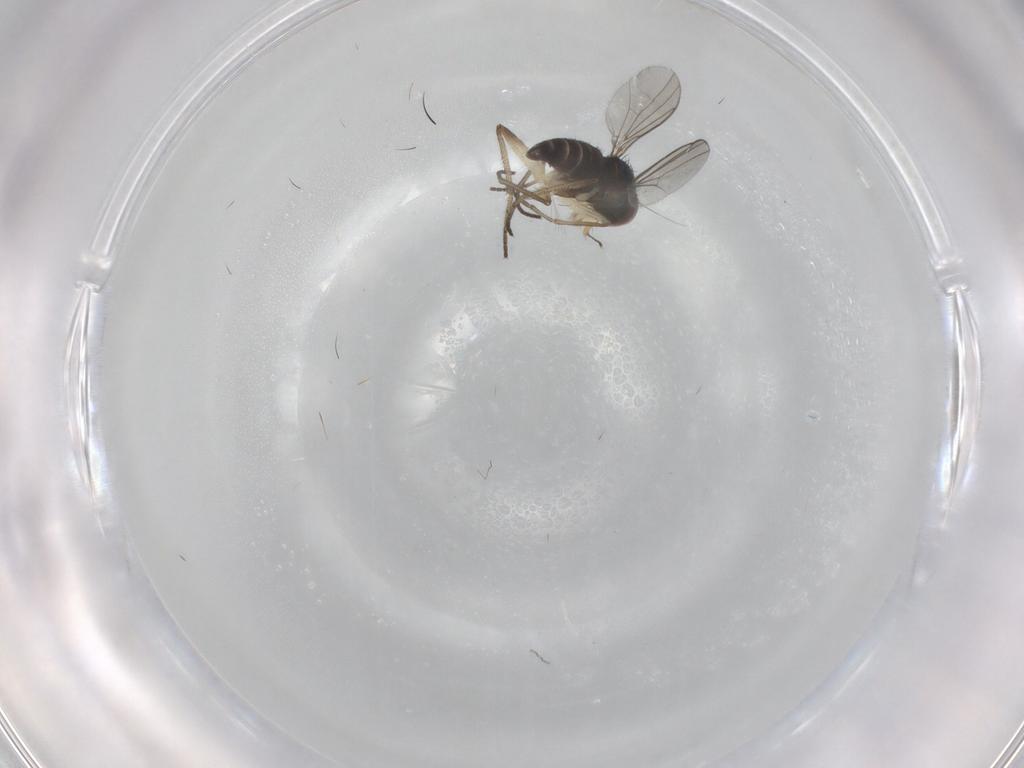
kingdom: Animalia
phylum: Arthropoda
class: Insecta
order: Diptera
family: Dolichopodidae
